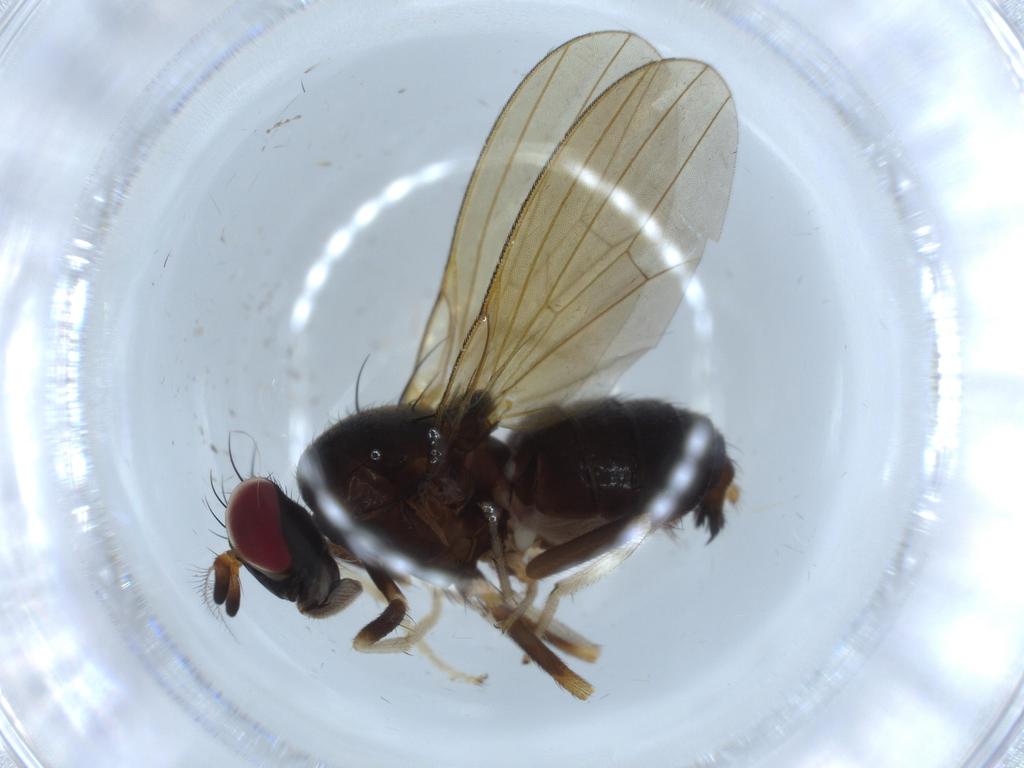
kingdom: Animalia
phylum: Arthropoda
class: Insecta
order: Diptera
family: Chironomidae
